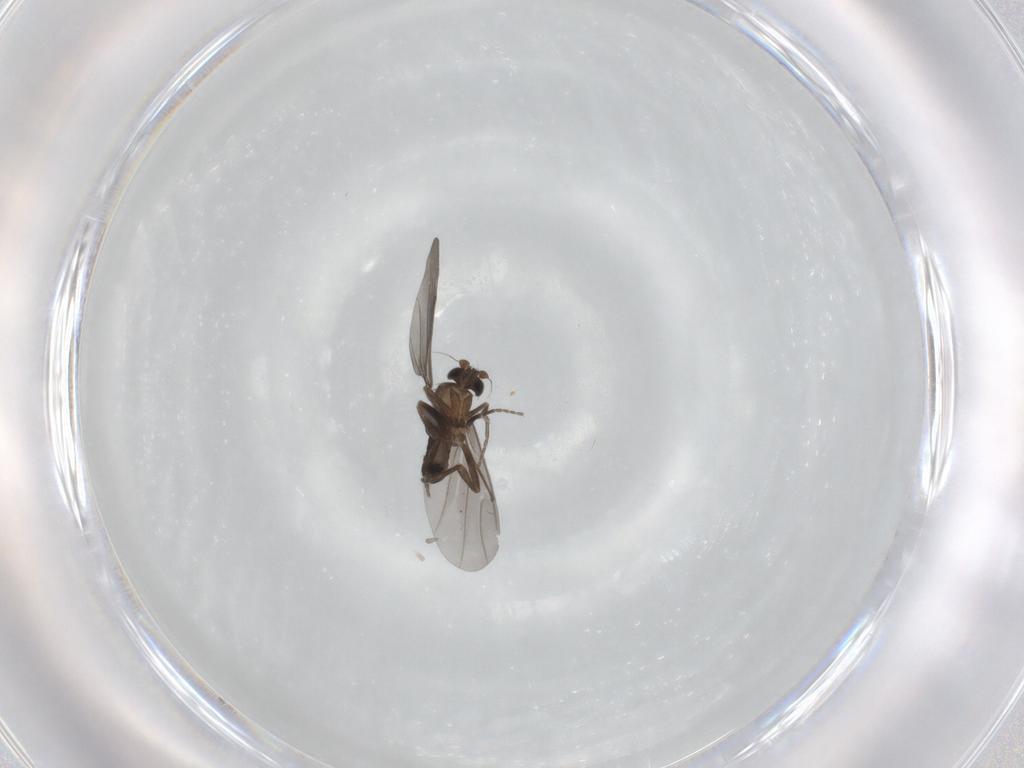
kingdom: Animalia
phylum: Arthropoda
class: Insecta
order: Diptera
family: Phoridae
